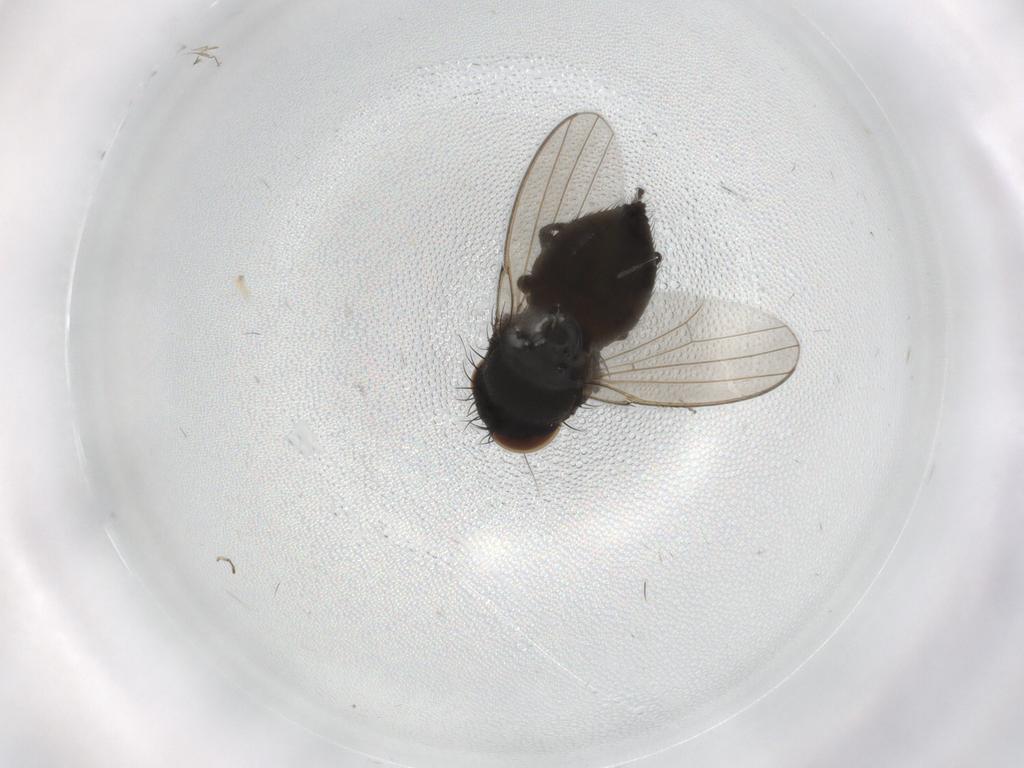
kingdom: Animalia
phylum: Arthropoda
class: Insecta
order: Diptera
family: Milichiidae
